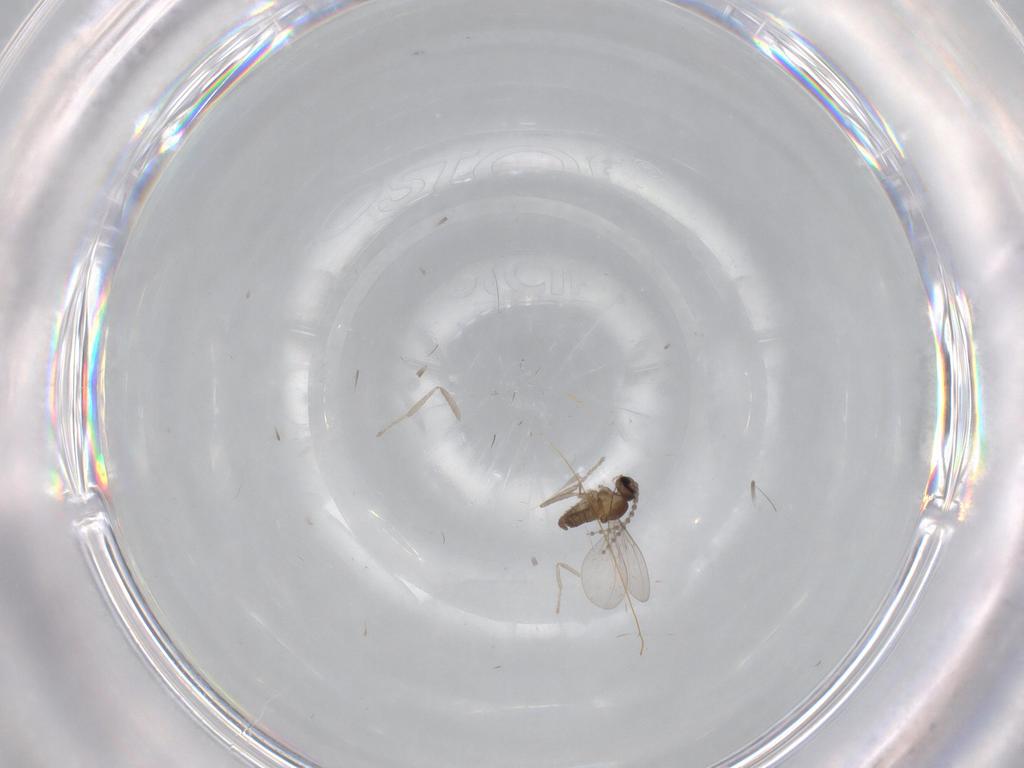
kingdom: Animalia
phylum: Arthropoda
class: Insecta
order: Diptera
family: Cecidomyiidae
